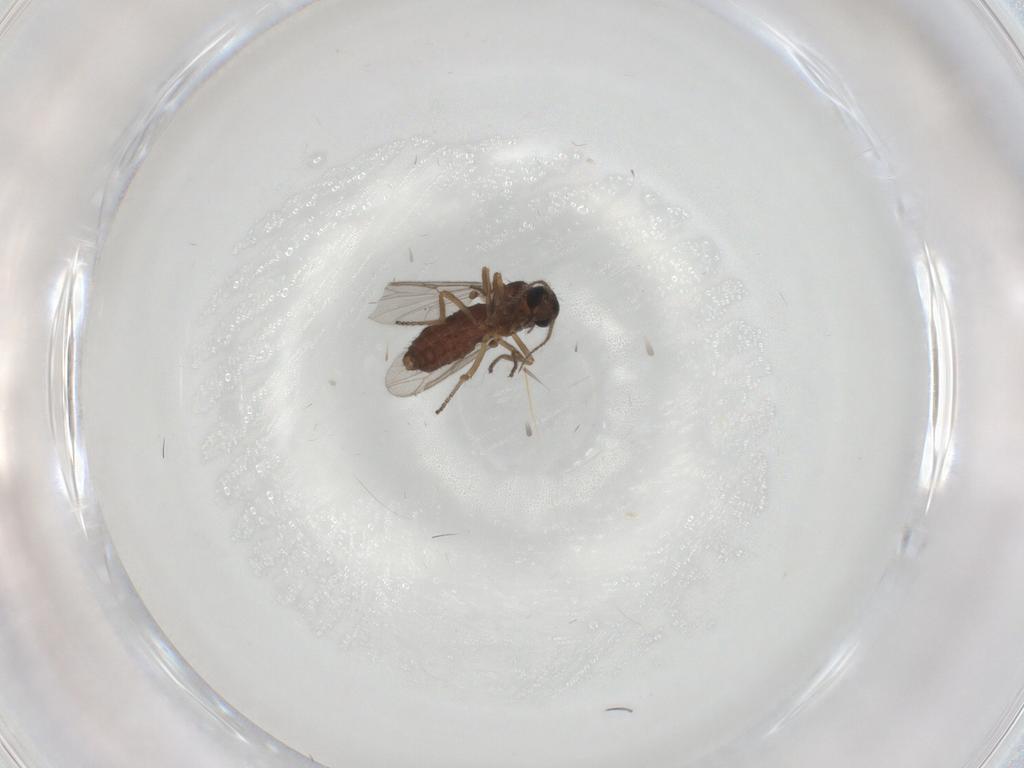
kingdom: Animalia
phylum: Arthropoda
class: Insecta
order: Diptera
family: Ceratopogonidae
